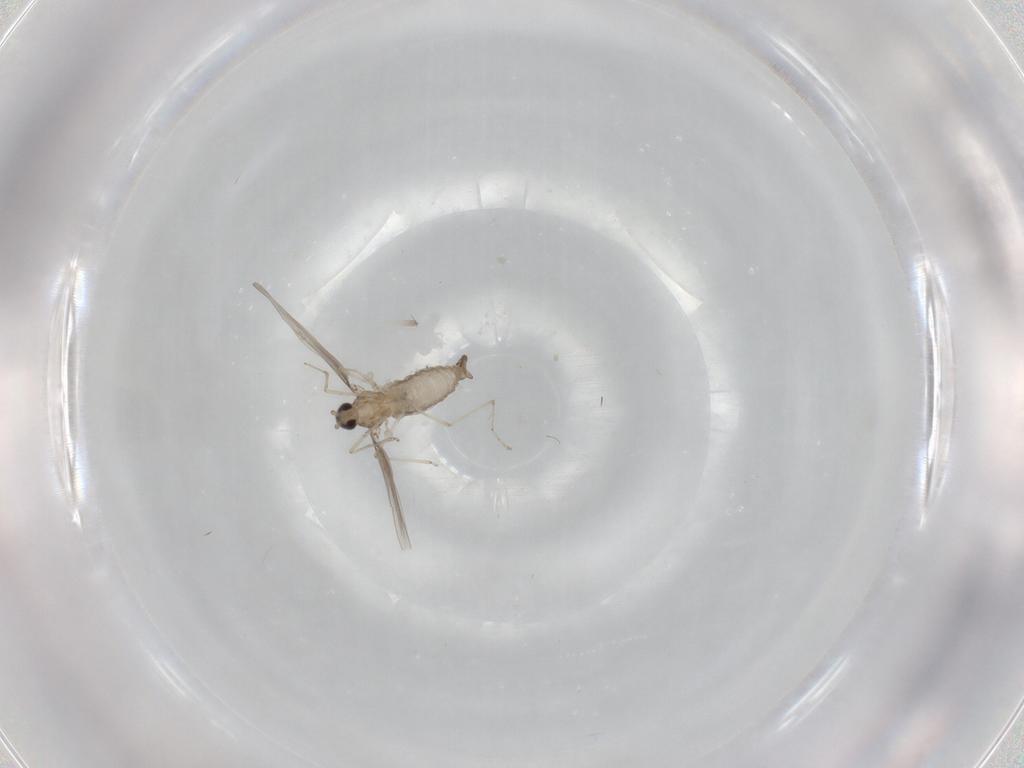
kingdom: Animalia
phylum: Arthropoda
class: Insecta
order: Diptera
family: Cecidomyiidae
